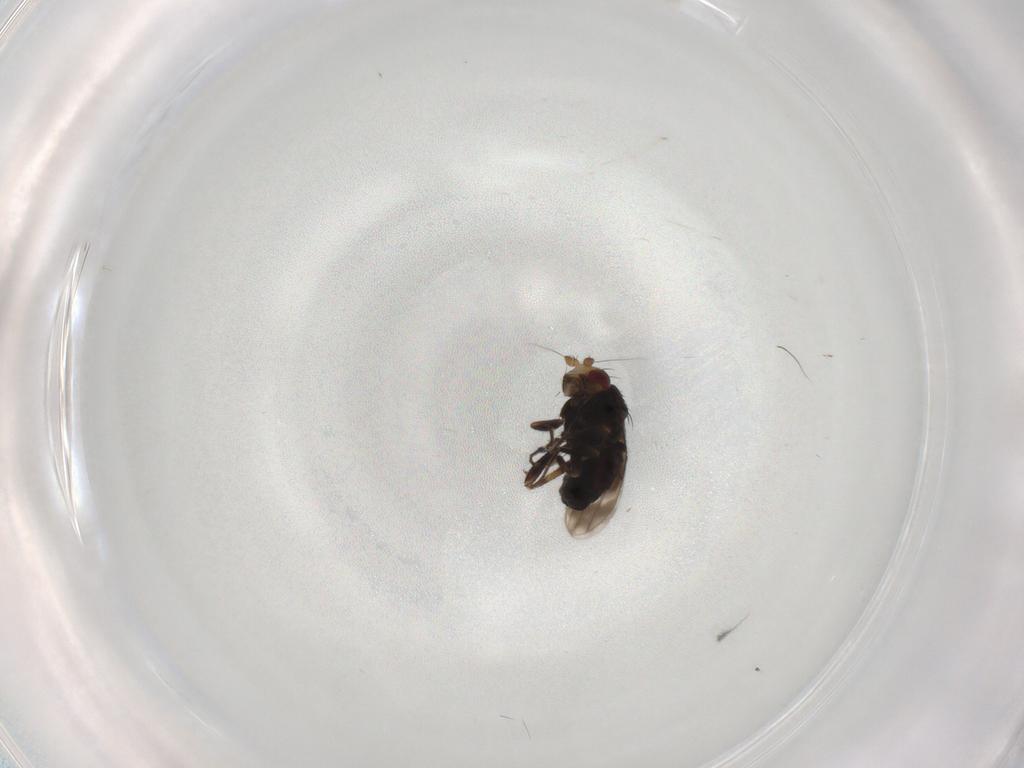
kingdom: Animalia
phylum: Arthropoda
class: Insecta
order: Diptera
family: Sphaeroceridae
